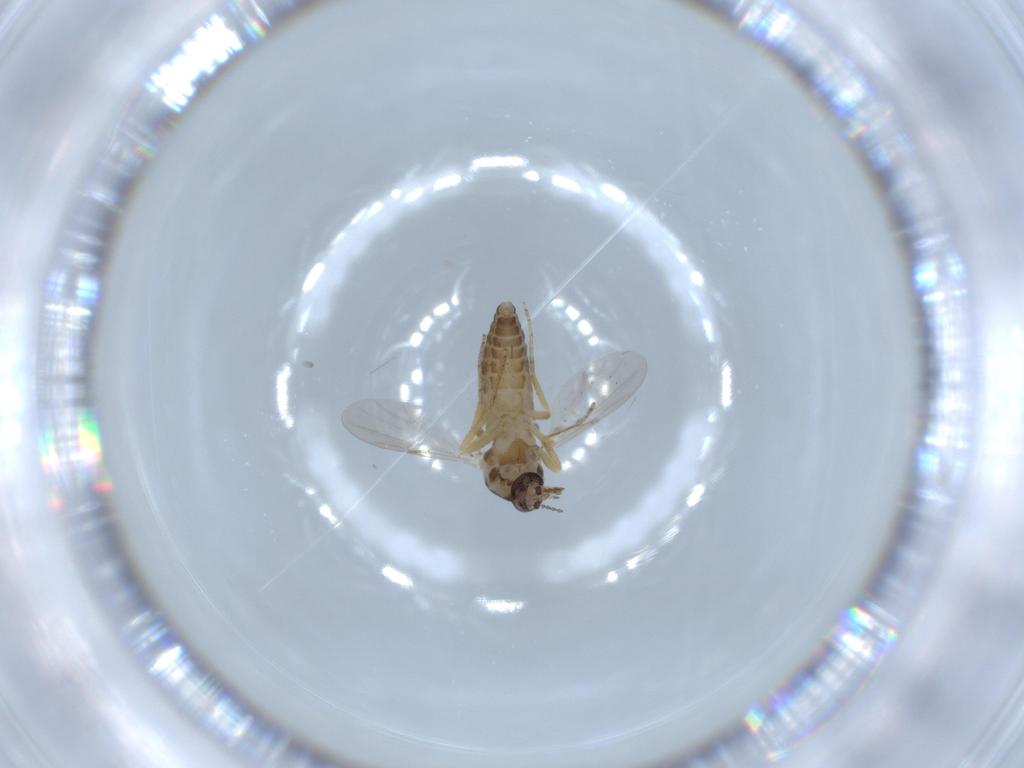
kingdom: Animalia
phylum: Arthropoda
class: Insecta
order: Diptera
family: Ceratopogonidae
